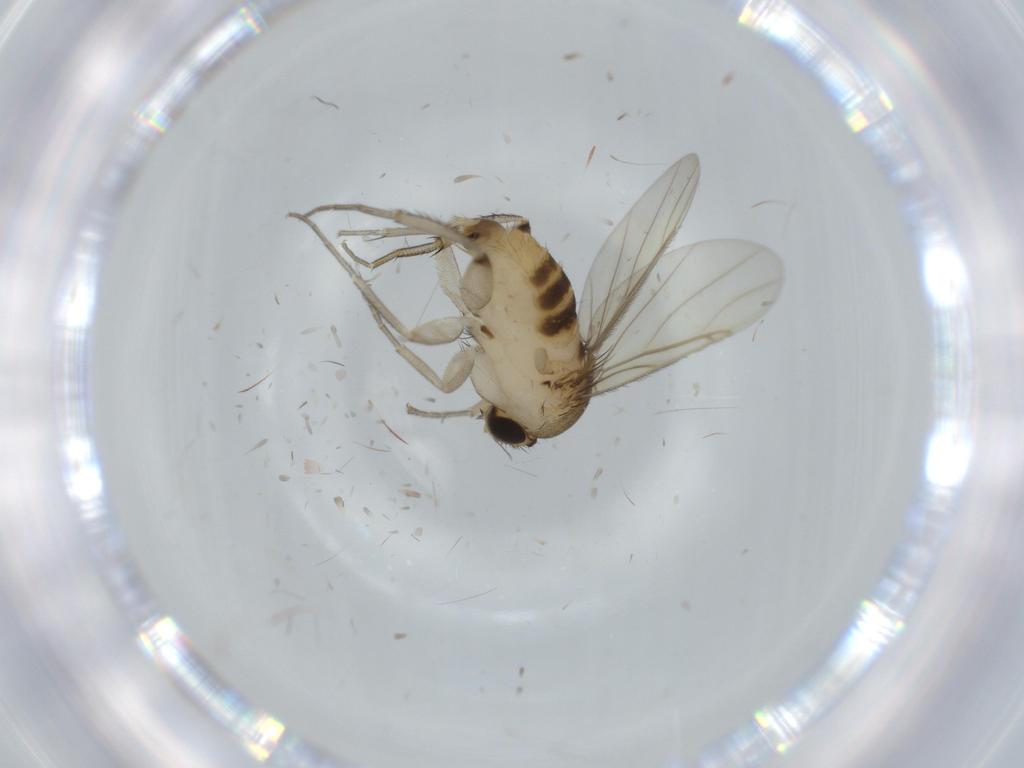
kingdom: Animalia
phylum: Arthropoda
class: Insecta
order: Diptera
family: Phoridae
